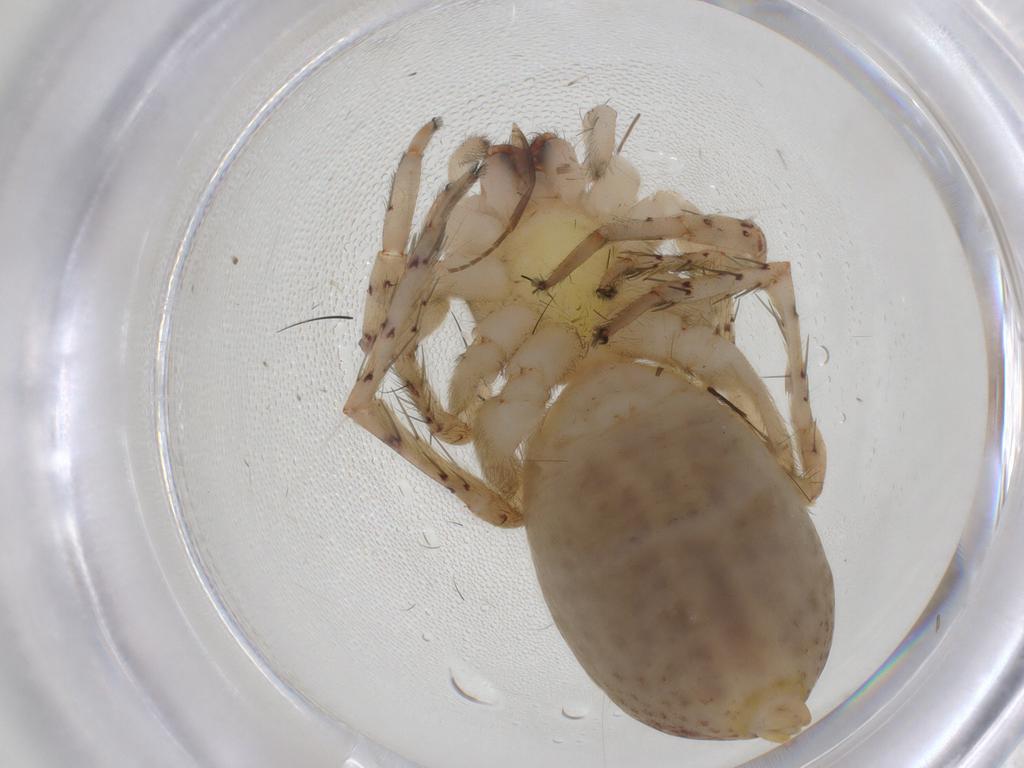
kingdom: Animalia
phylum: Arthropoda
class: Arachnida
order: Araneae
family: Anyphaenidae
